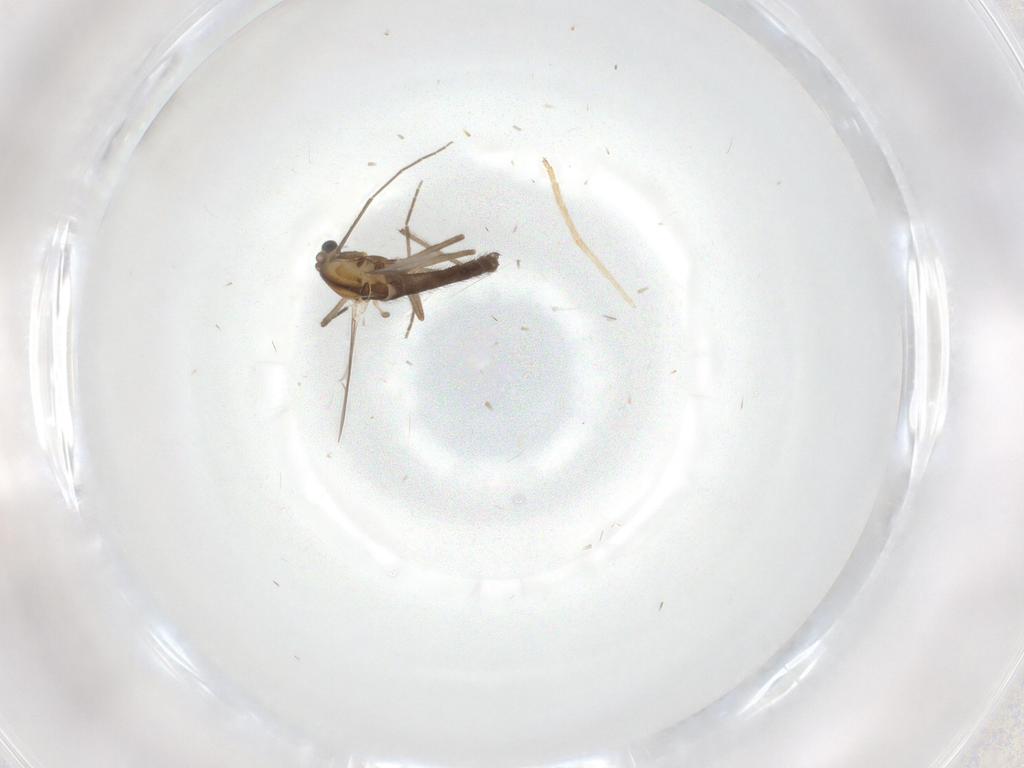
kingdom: Animalia
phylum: Arthropoda
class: Insecta
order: Diptera
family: Chironomidae
